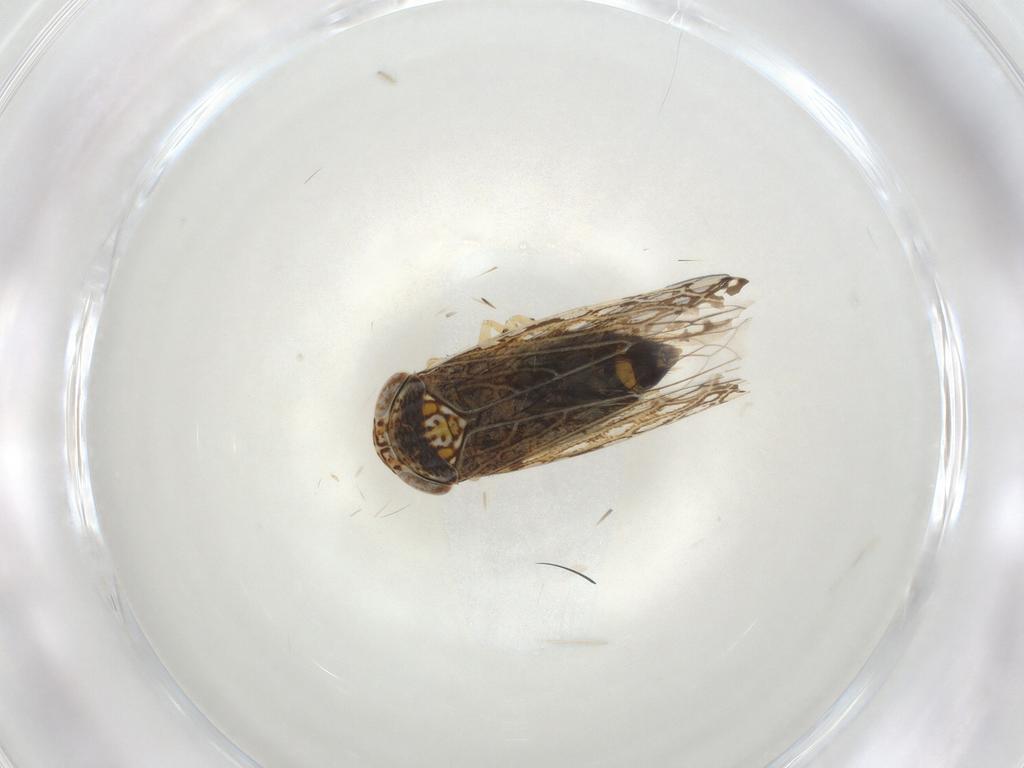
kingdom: Animalia
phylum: Arthropoda
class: Insecta
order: Hemiptera
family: Cicadellidae
